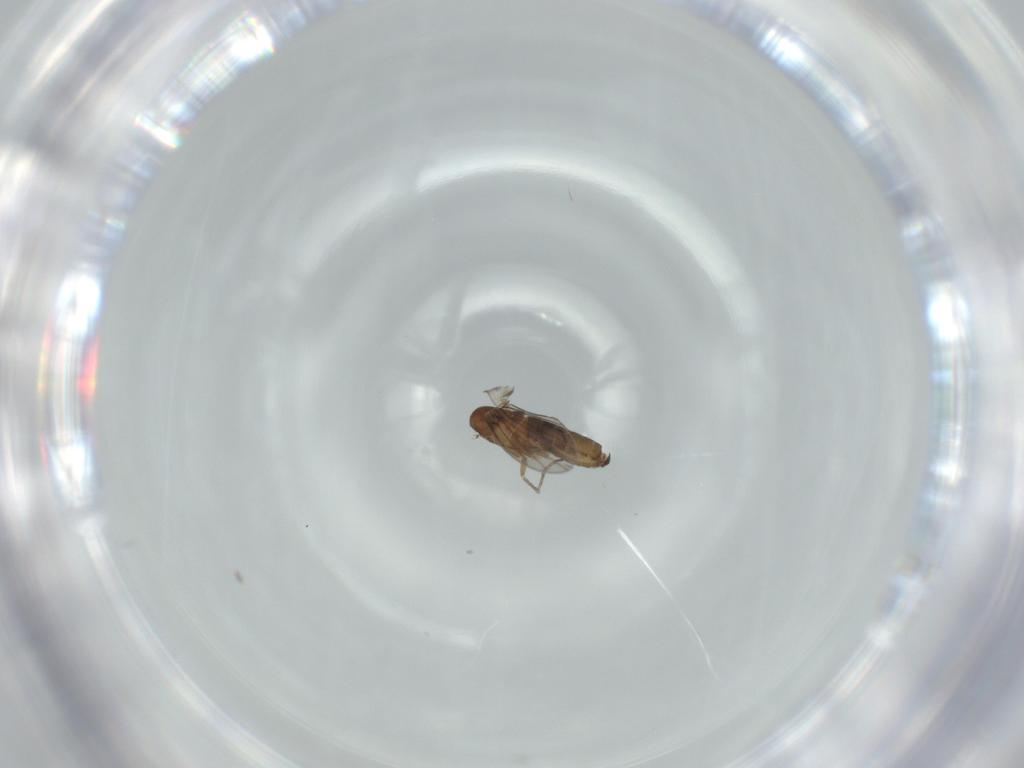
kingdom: Animalia
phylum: Arthropoda
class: Insecta
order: Diptera
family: Psychodidae
